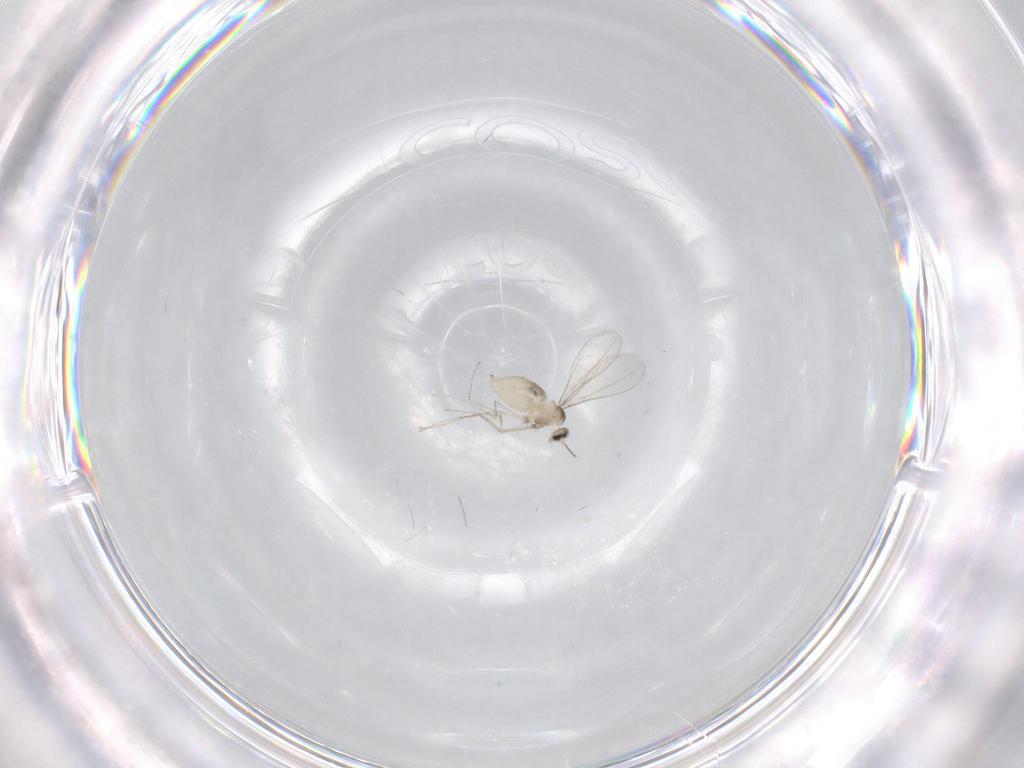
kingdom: Animalia
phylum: Arthropoda
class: Insecta
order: Diptera
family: Cecidomyiidae
